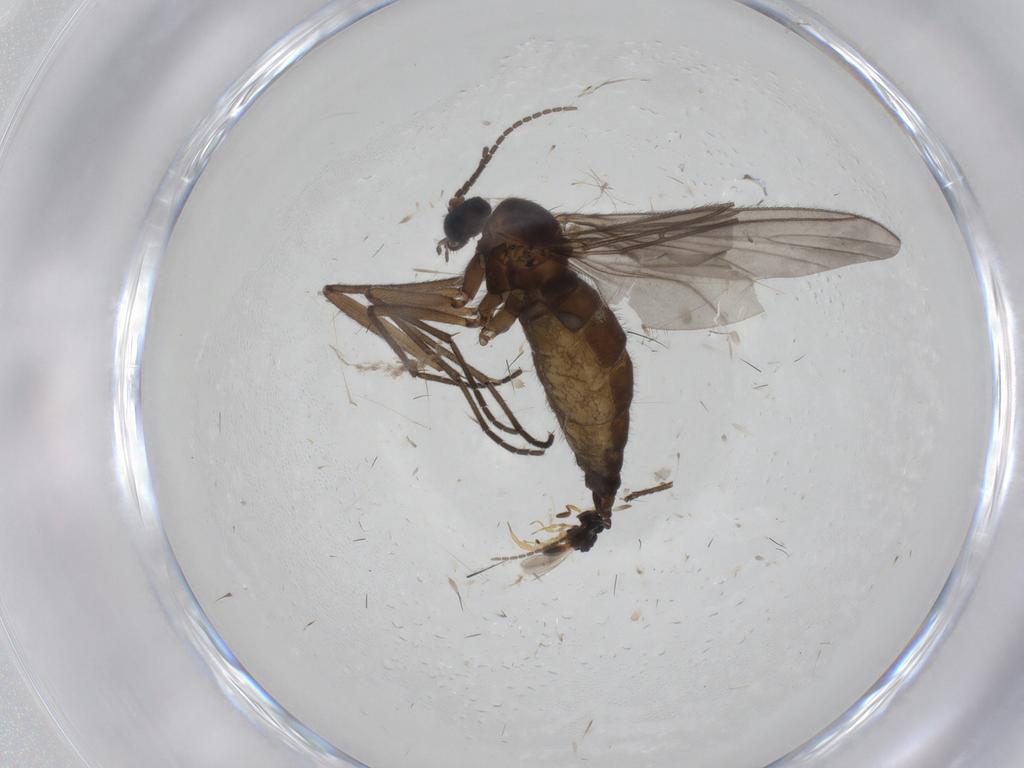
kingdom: Animalia
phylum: Arthropoda
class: Insecta
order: Diptera
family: Sciaridae
